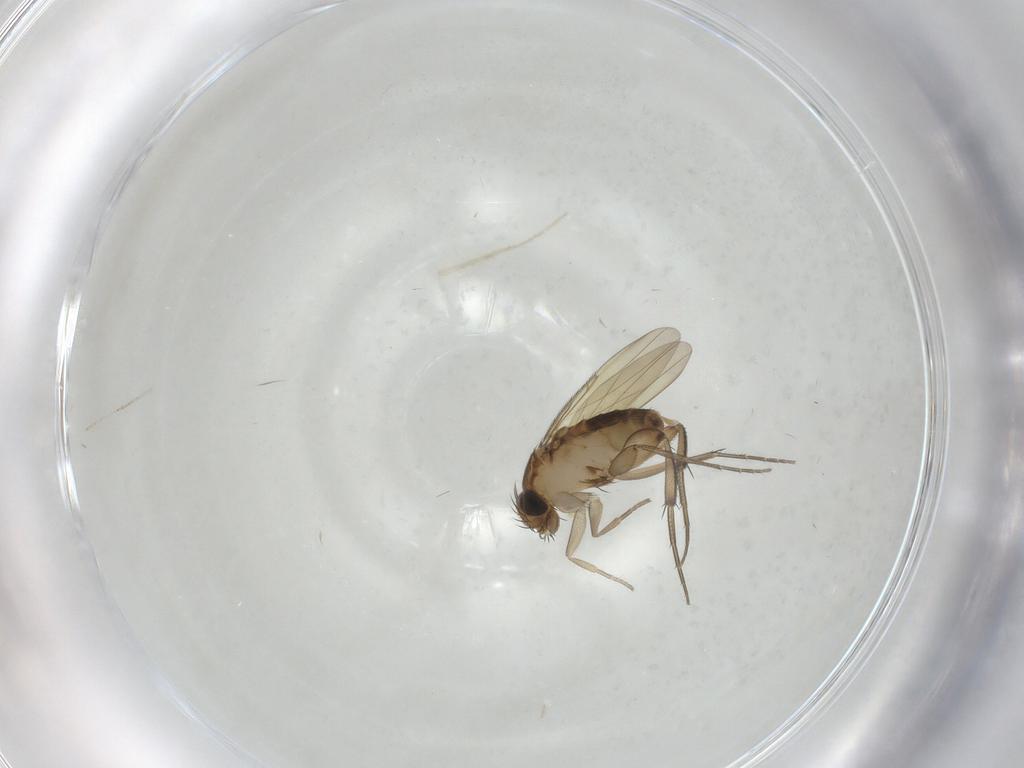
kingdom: Animalia
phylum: Arthropoda
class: Insecta
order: Diptera
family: Phoridae
